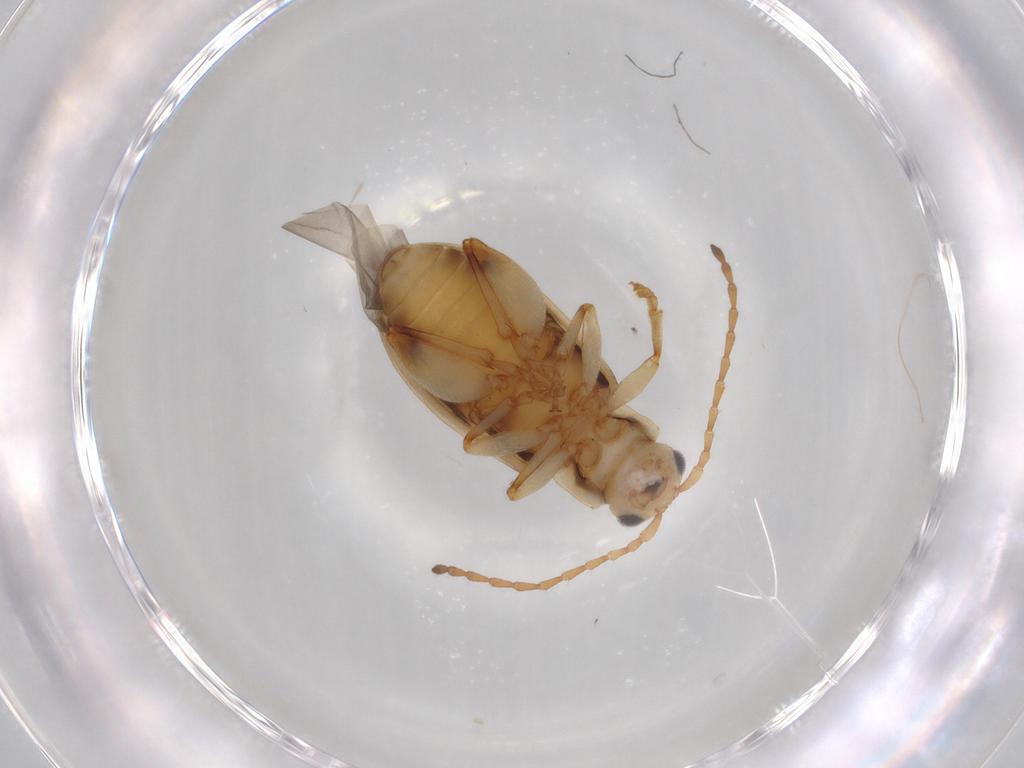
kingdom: Animalia
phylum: Arthropoda
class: Insecta
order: Coleoptera
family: Chrysomelidae
